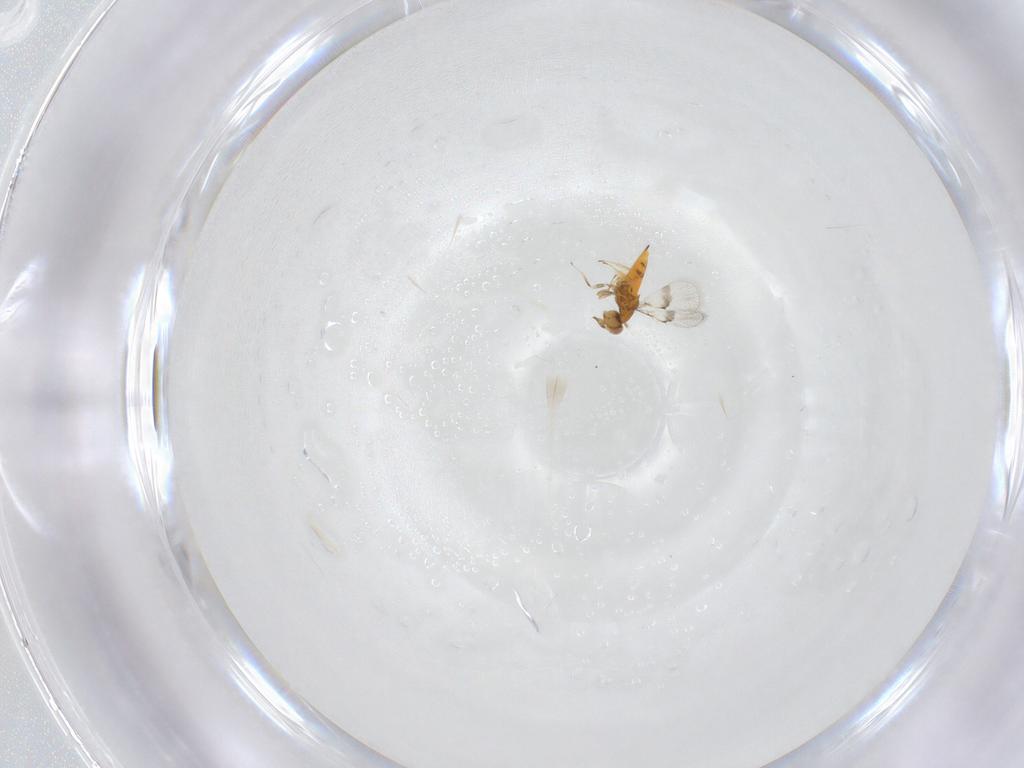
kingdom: Animalia
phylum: Arthropoda
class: Insecta
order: Hymenoptera
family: Trichogrammatidae
